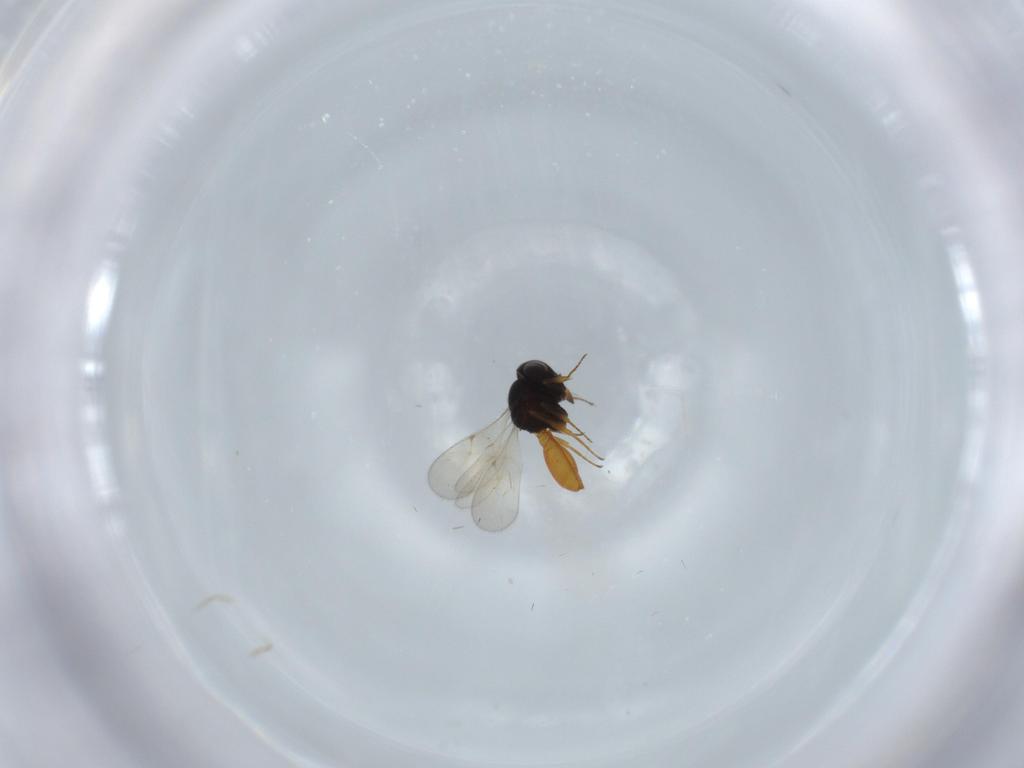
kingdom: Animalia
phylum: Arthropoda
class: Insecta
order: Hymenoptera
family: Scelionidae
